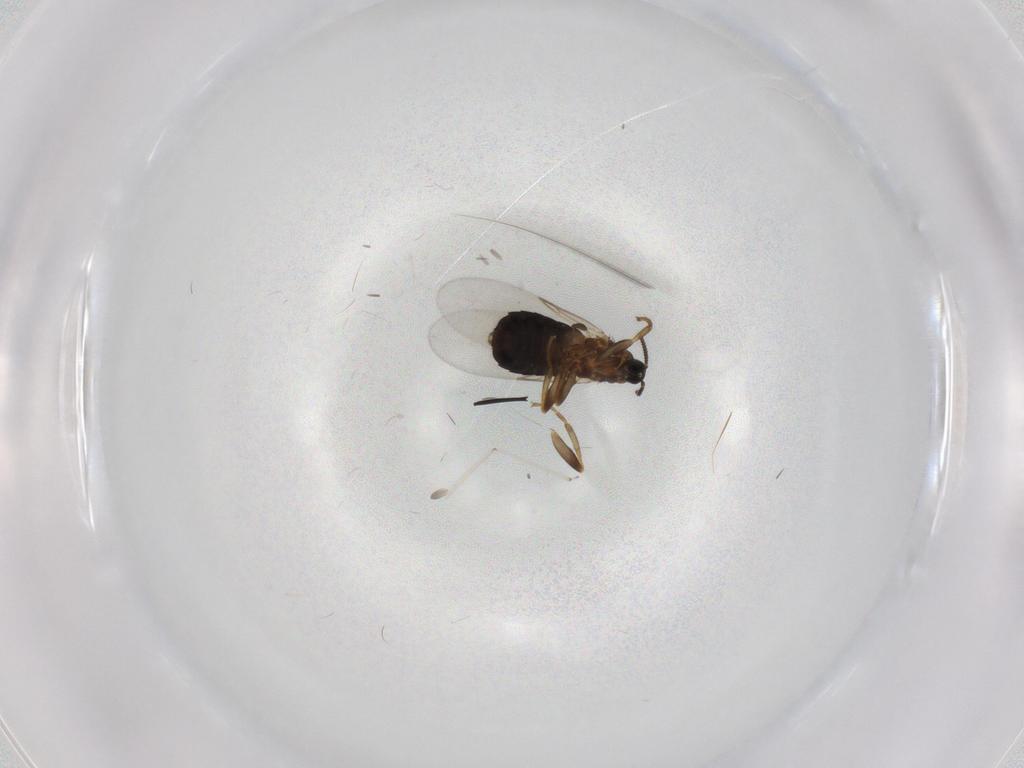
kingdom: Animalia
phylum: Arthropoda
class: Insecta
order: Diptera
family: Scatopsidae
